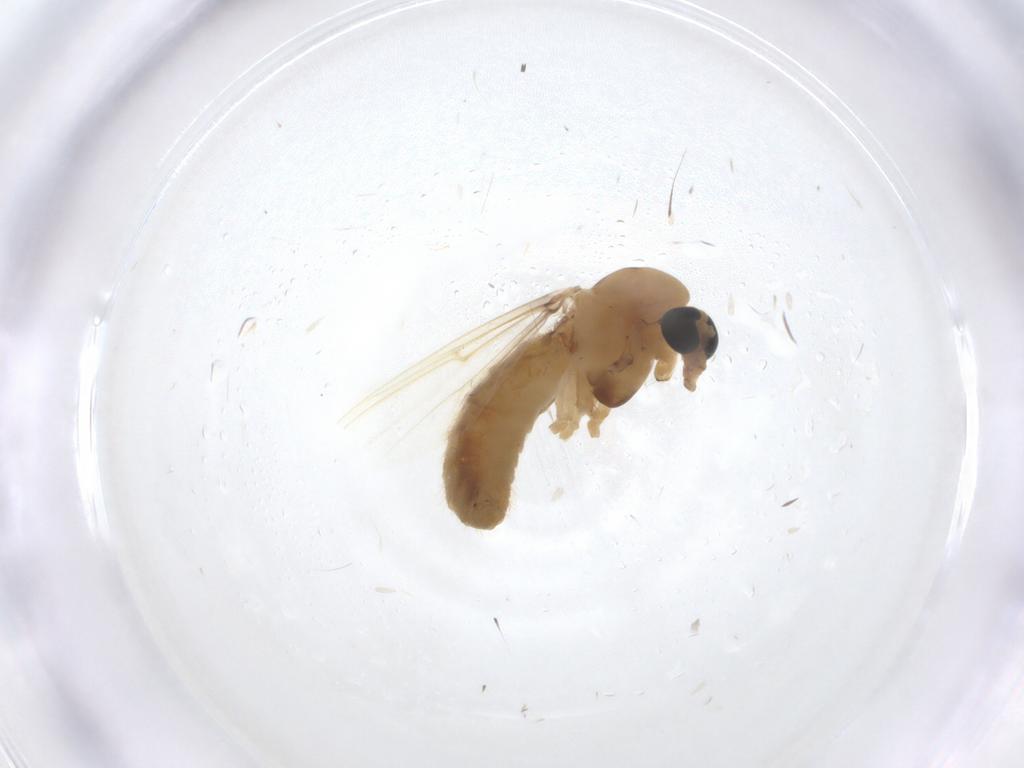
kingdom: Animalia
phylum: Arthropoda
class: Insecta
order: Diptera
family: Chironomidae
